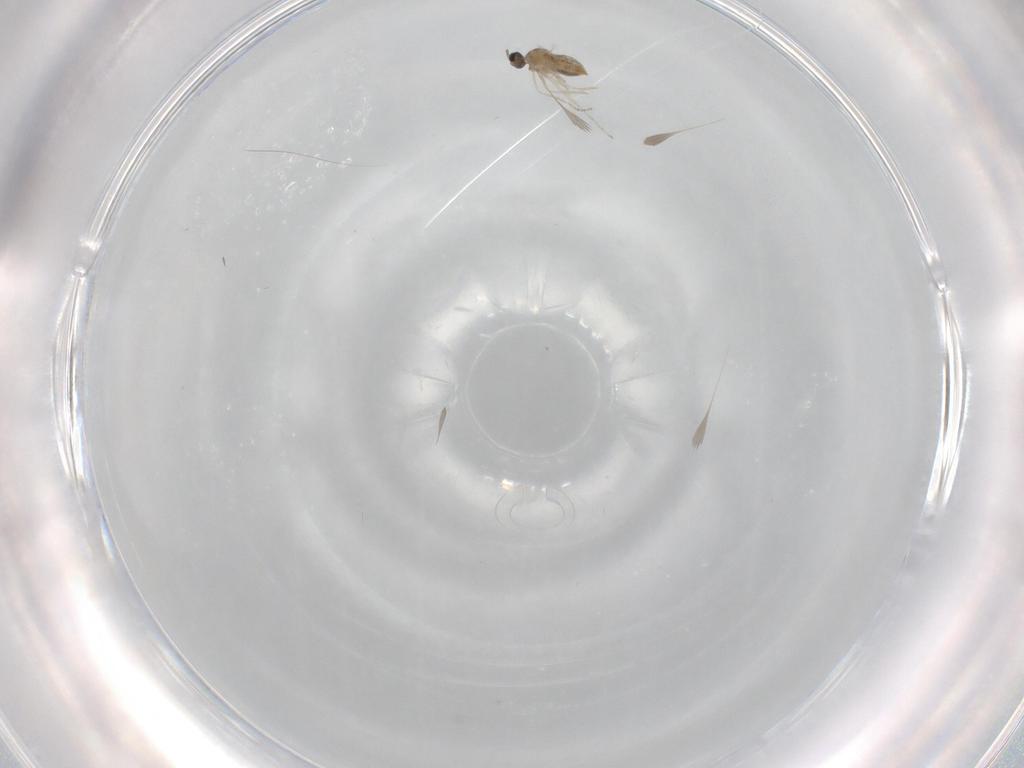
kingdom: Animalia
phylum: Arthropoda
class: Insecta
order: Diptera
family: Cecidomyiidae
